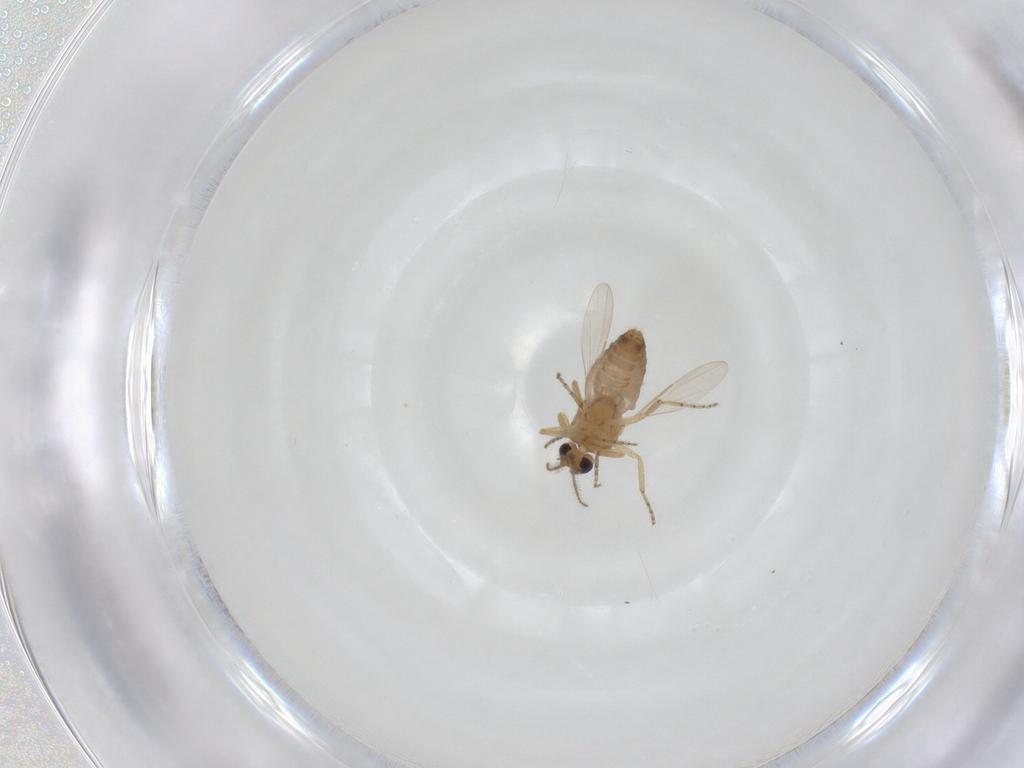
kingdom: Animalia
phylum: Arthropoda
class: Insecta
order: Diptera
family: Ceratopogonidae
